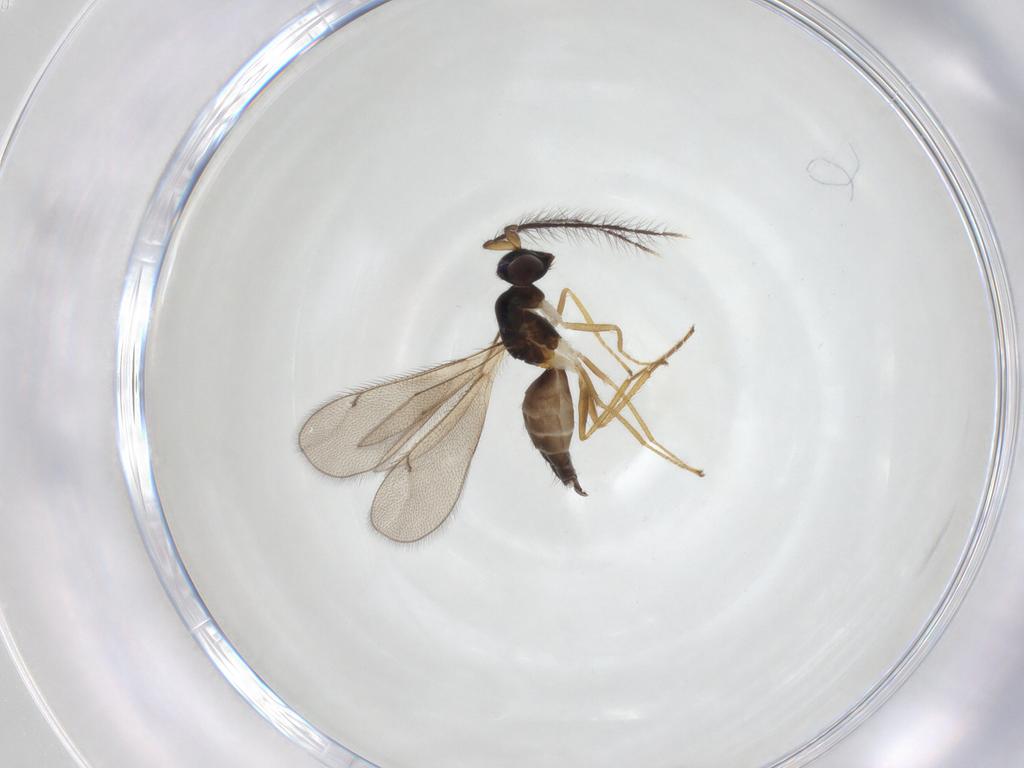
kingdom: Animalia
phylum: Arthropoda
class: Insecta
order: Hymenoptera
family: Eulophidae
